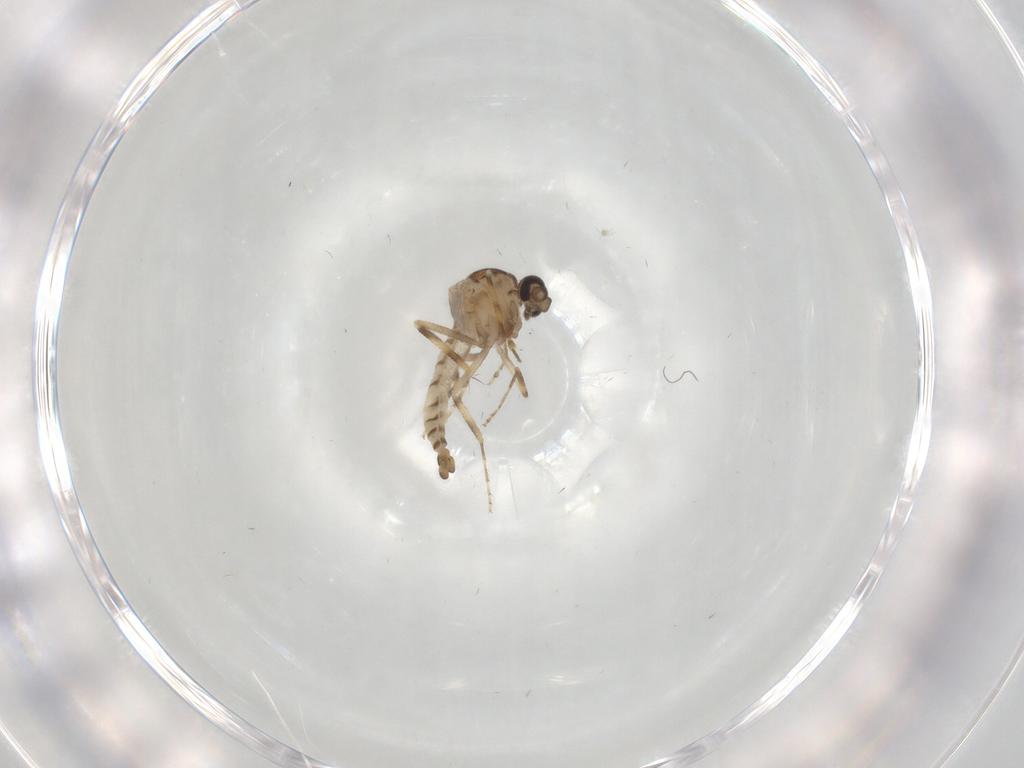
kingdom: Animalia
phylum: Arthropoda
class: Insecta
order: Diptera
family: Ceratopogonidae
